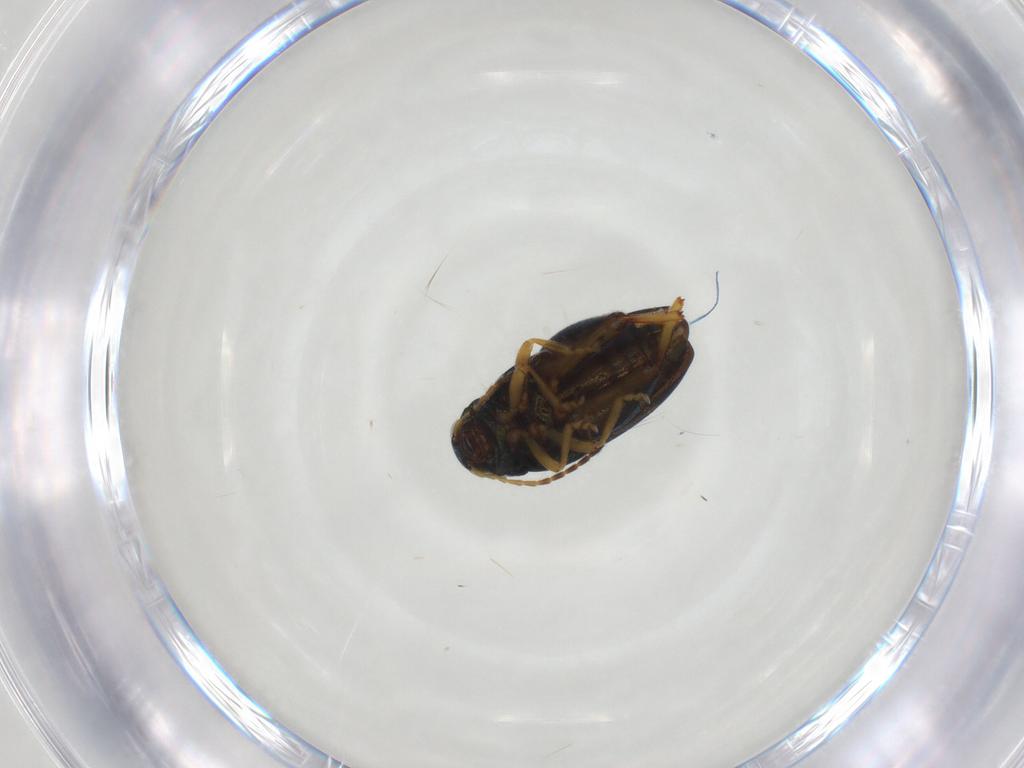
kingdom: Animalia
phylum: Arthropoda
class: Insecta
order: Coleoptera
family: Chrysomelidae
